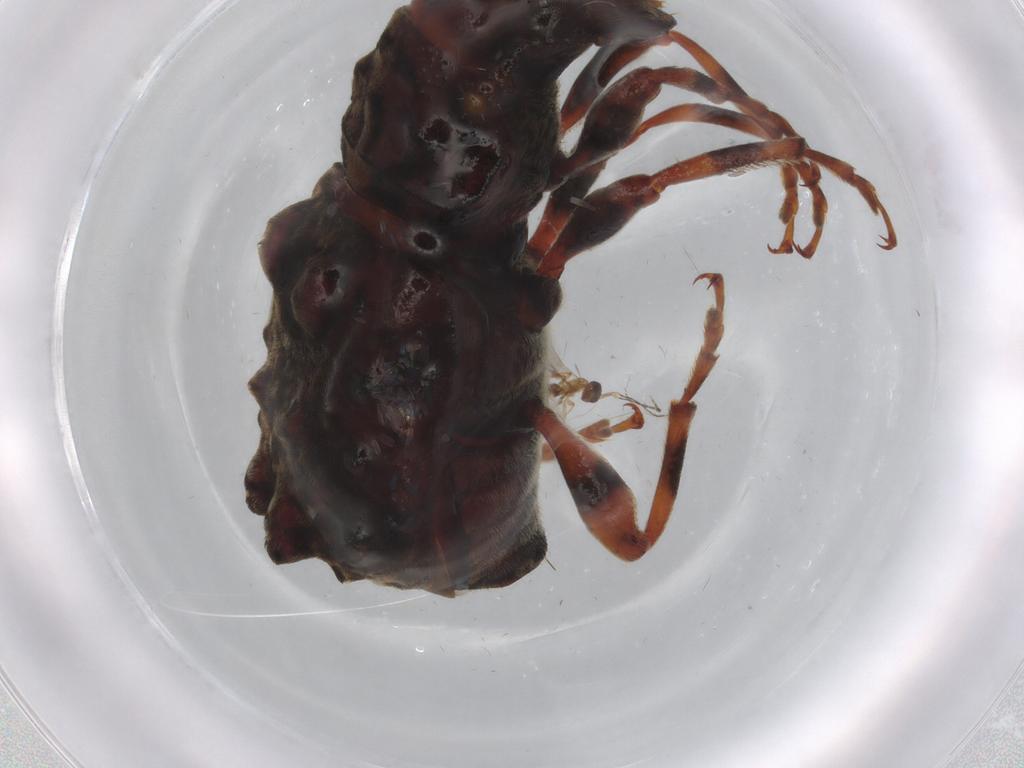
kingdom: Animalia
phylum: Arthropoda
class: Insecta
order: Coleoptera
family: Anthribidae
